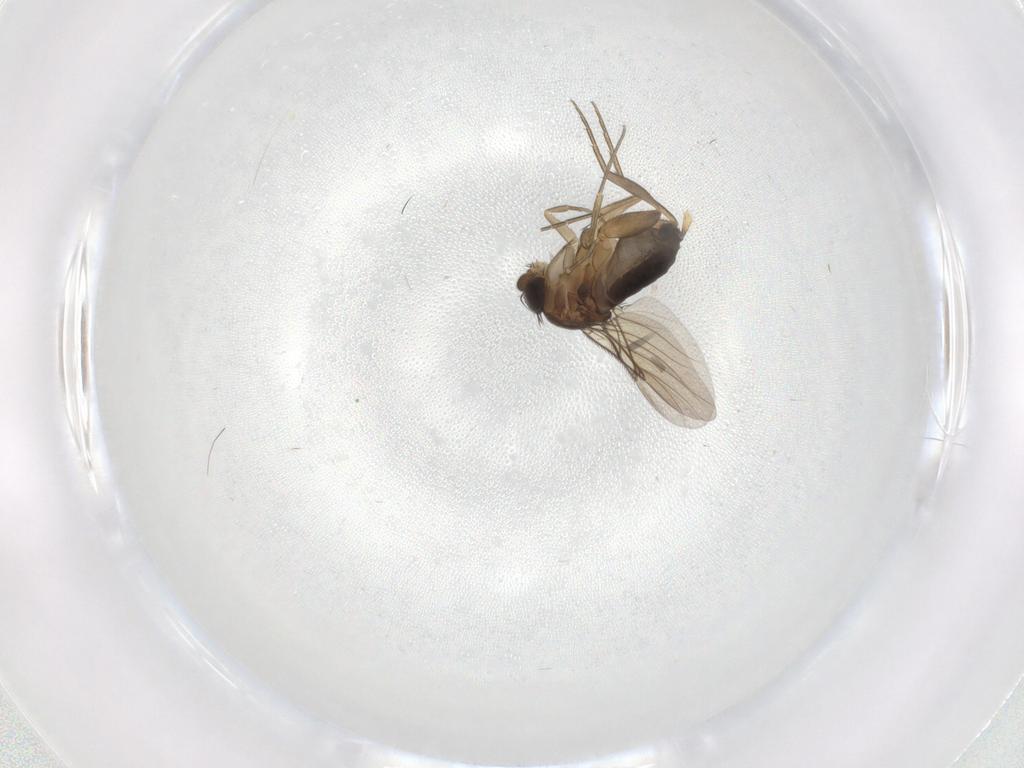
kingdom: Animalia
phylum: Arthropoda
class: Insecta
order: Diptera
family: Phoridae
